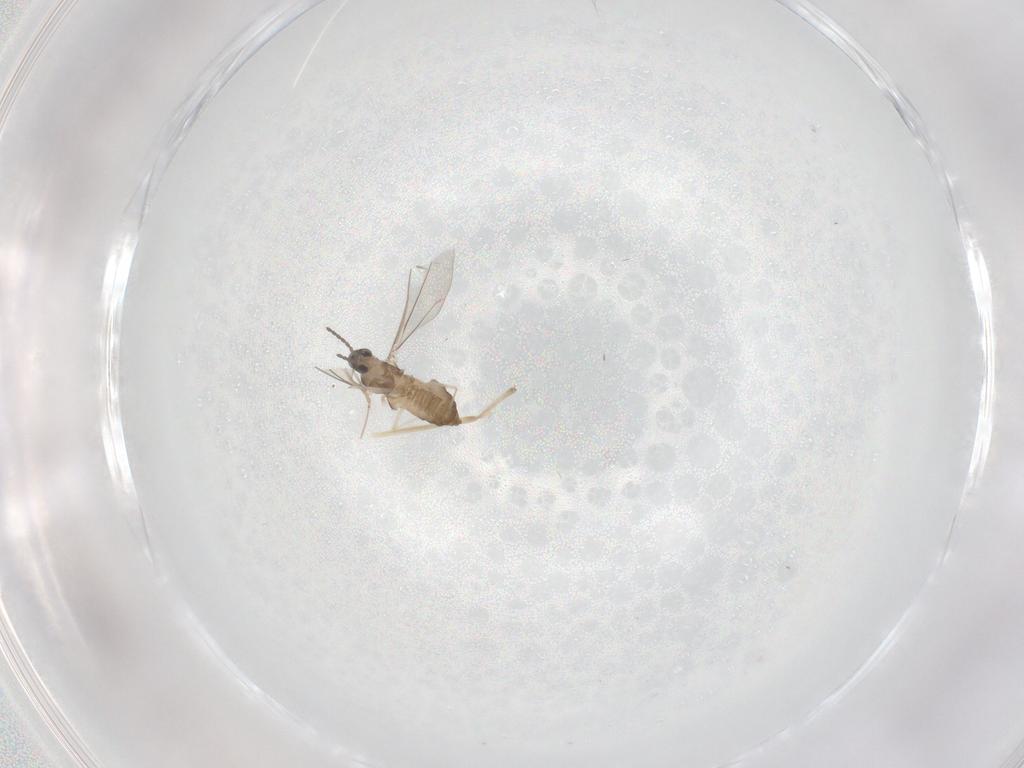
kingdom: Animalia
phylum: Arthropoda
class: Insecta
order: Diptera
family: Cecidomyiidae
